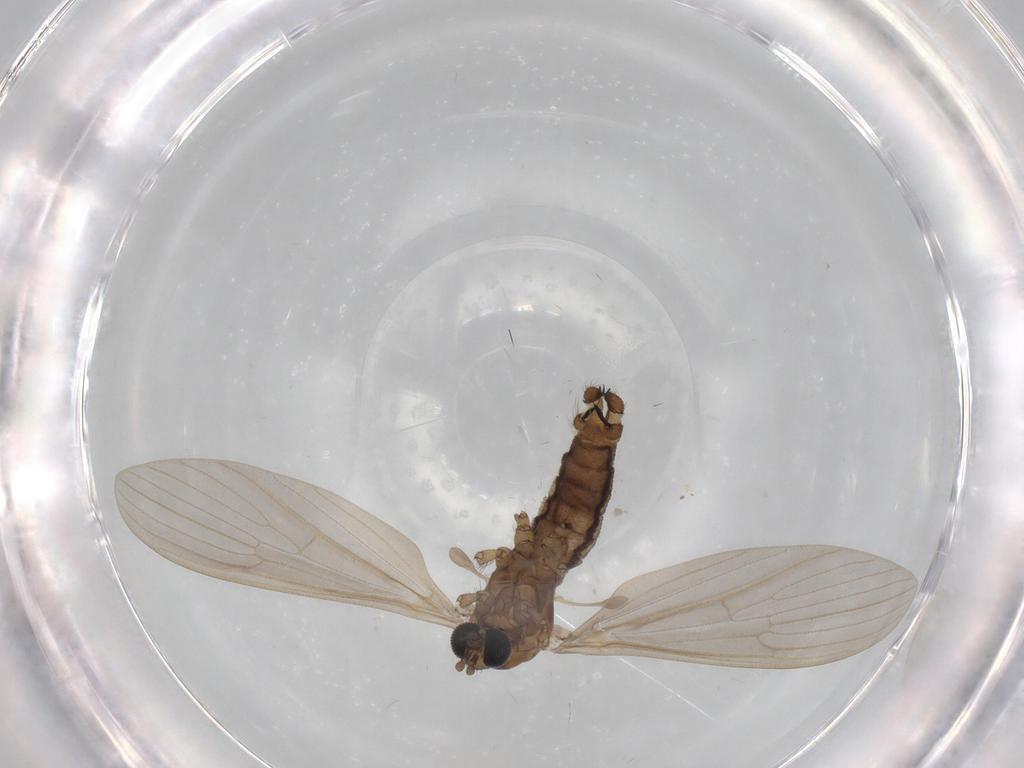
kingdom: Animalia
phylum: Arthropoda
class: Insecta
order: Diptera
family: Limoniidae
